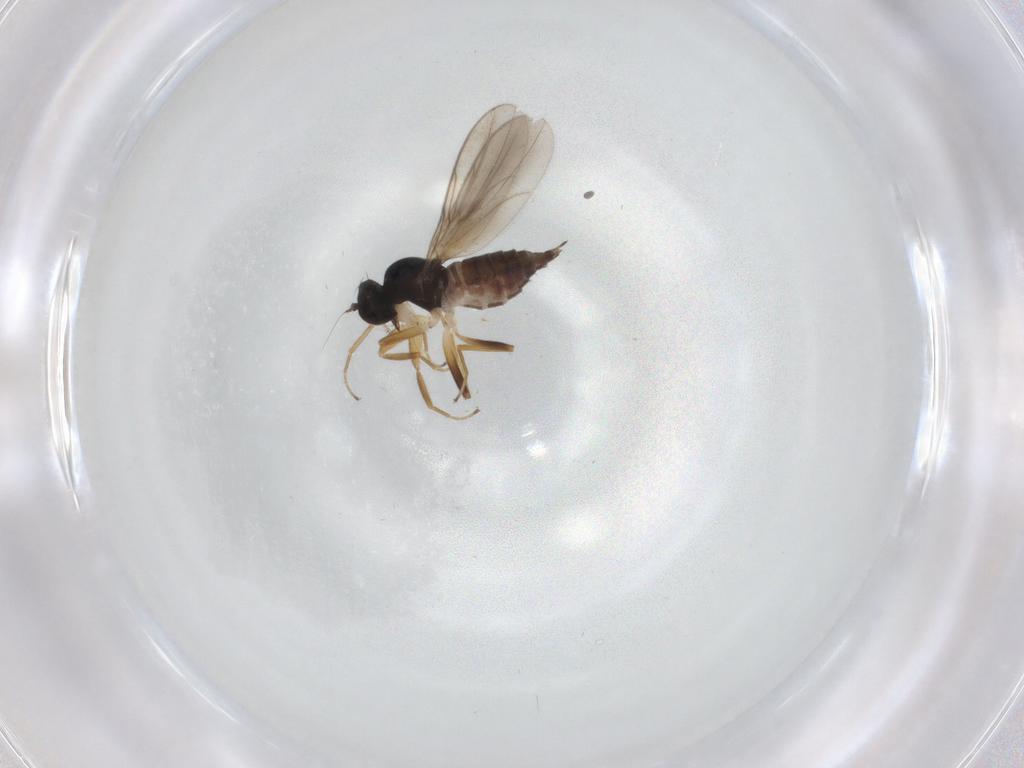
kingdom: Animalia
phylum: Arthropoda
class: Insecta
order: Diptera
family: Hybotidae
